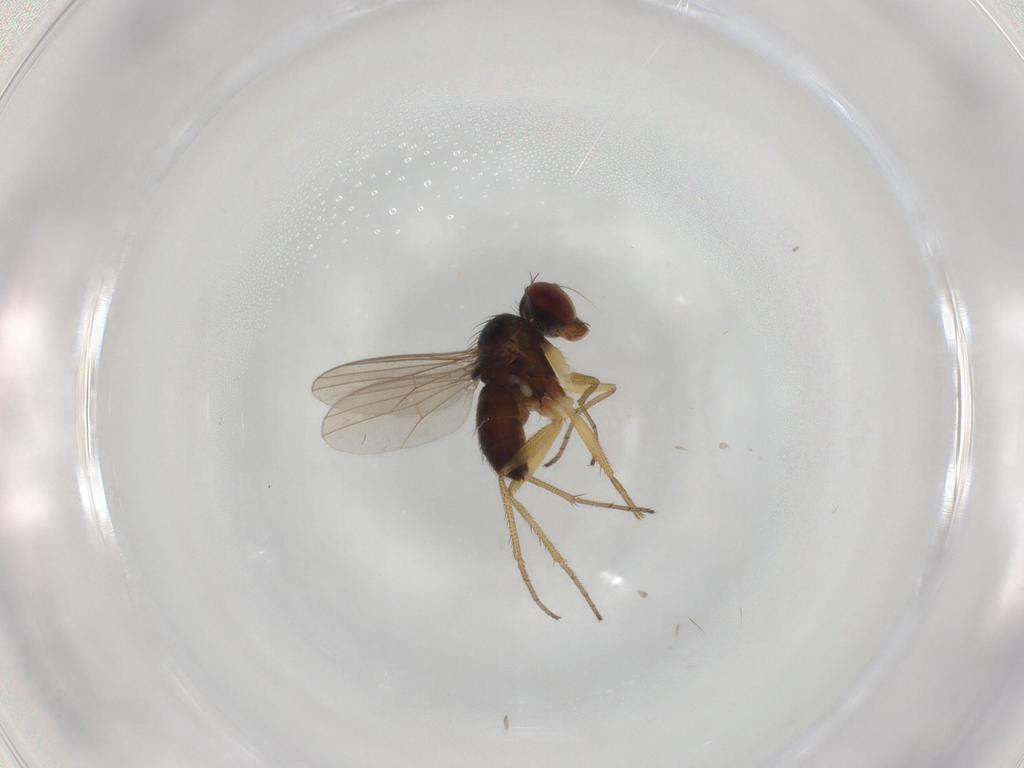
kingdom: Animalia
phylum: Arthropoda
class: Insecta
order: Diptera
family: Dolichopodidae
